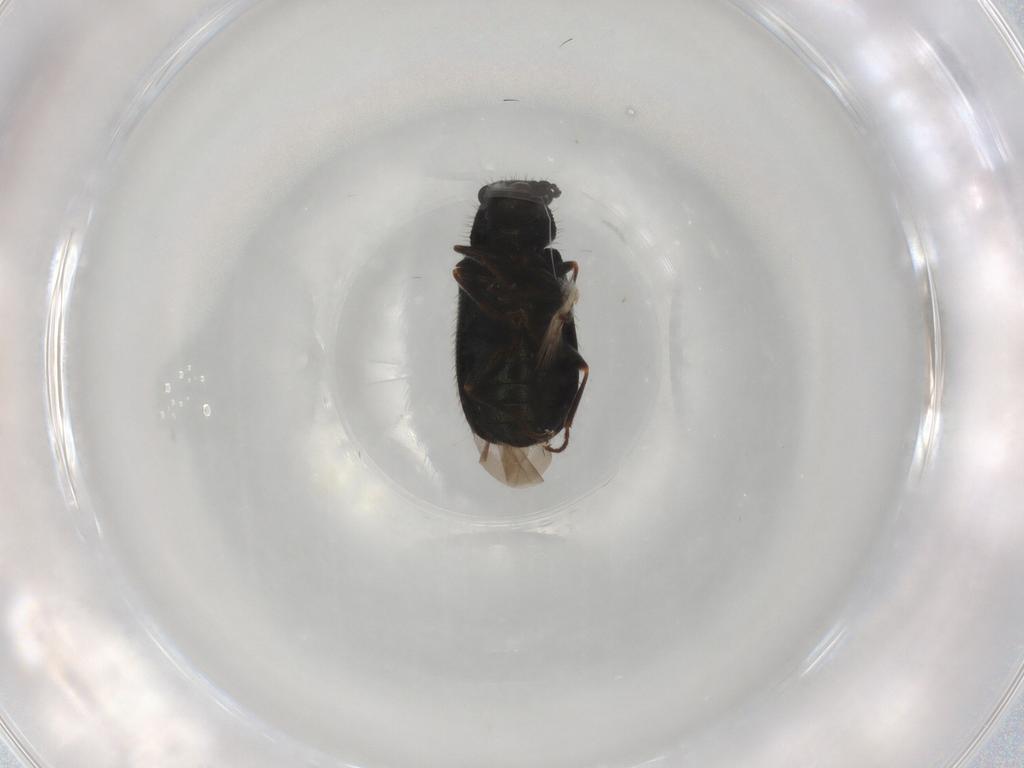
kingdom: Animalia
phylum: Arthropoda
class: Insecta
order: Coleoptera
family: Melyridae
